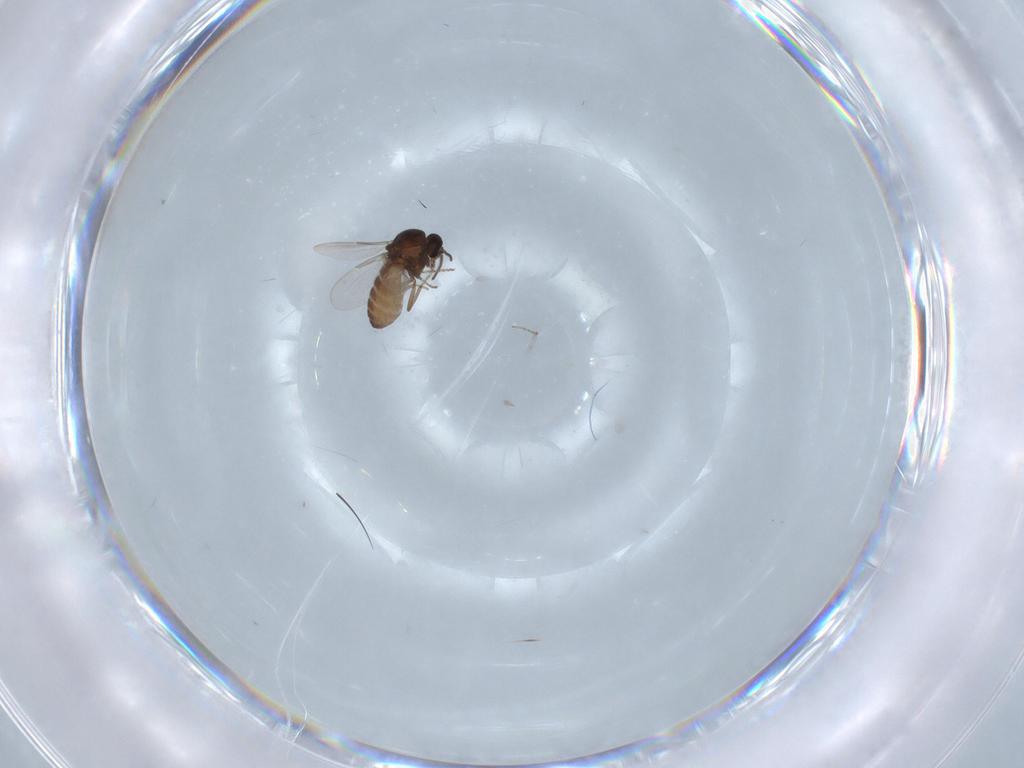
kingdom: Animalia
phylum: Arthropoda
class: Insecta
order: Diptera
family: Ceratopogonidae
